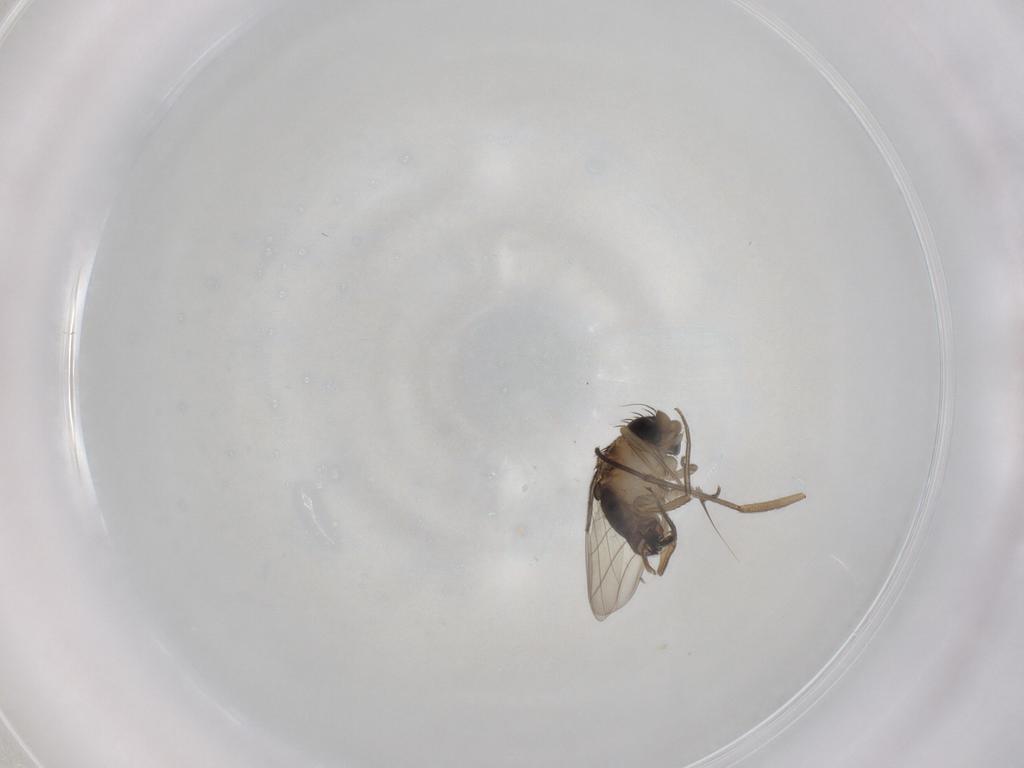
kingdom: Animalia
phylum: Arthropoda
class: Insecta
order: Diptera
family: Phoridae
